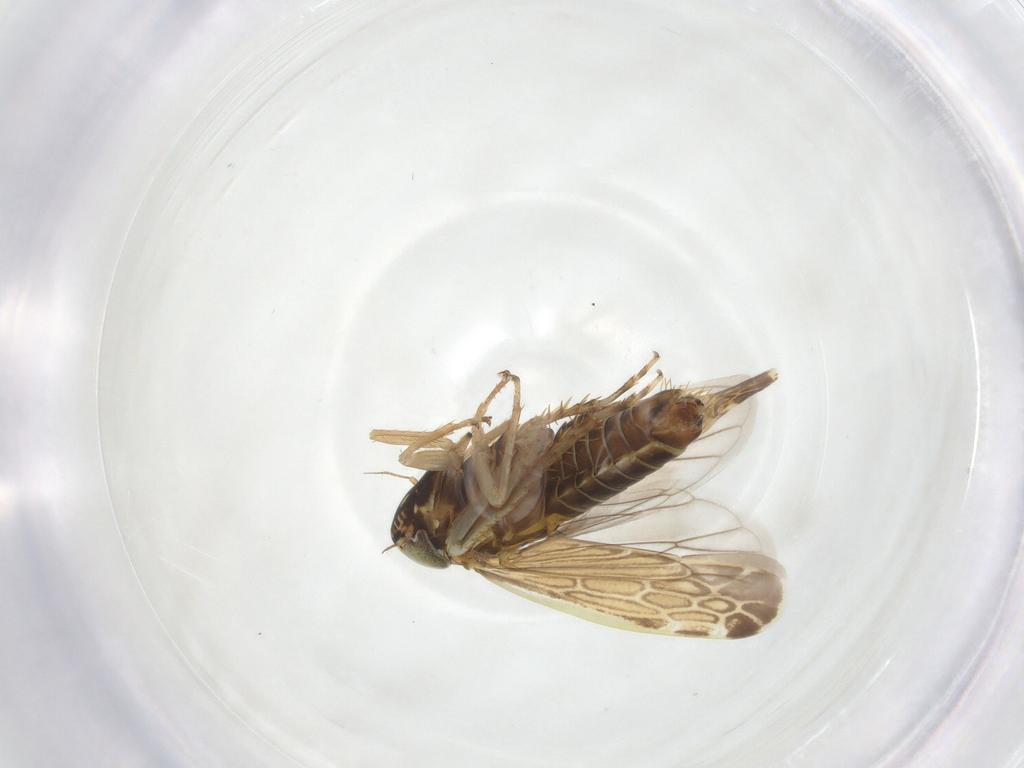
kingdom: Animalia
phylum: Arthropoda
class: Insecta
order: Hemiptera
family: Cicadellidae
